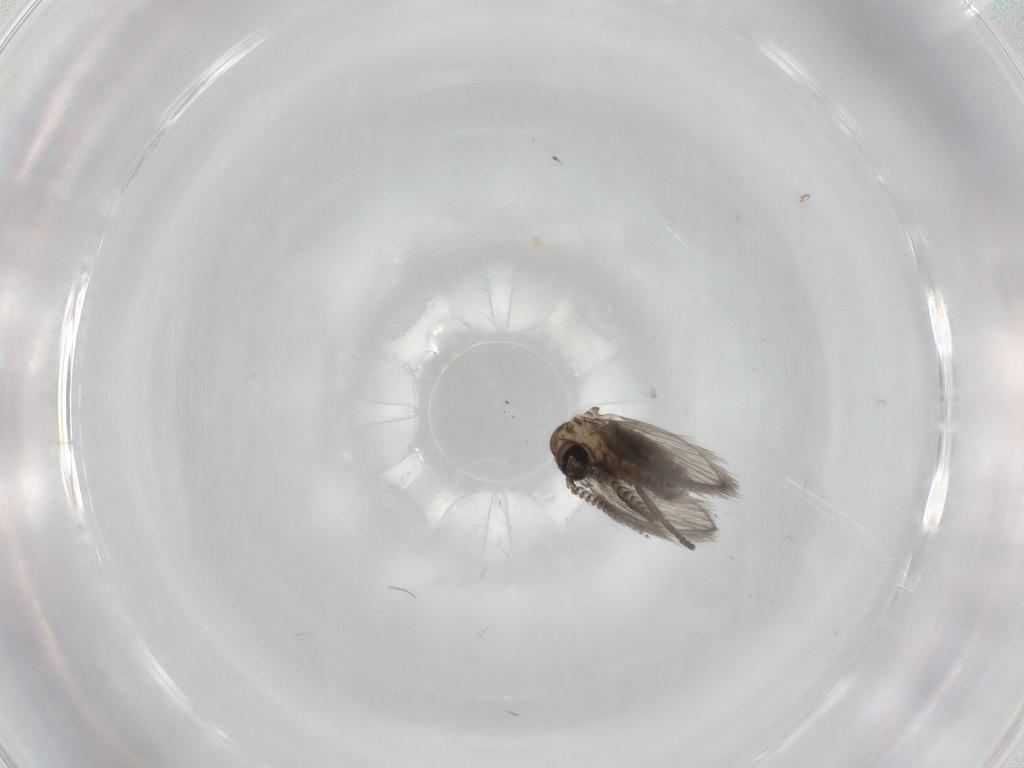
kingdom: Animalia
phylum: Arthropoda
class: Insecta
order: Diptera
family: Psychodidae
